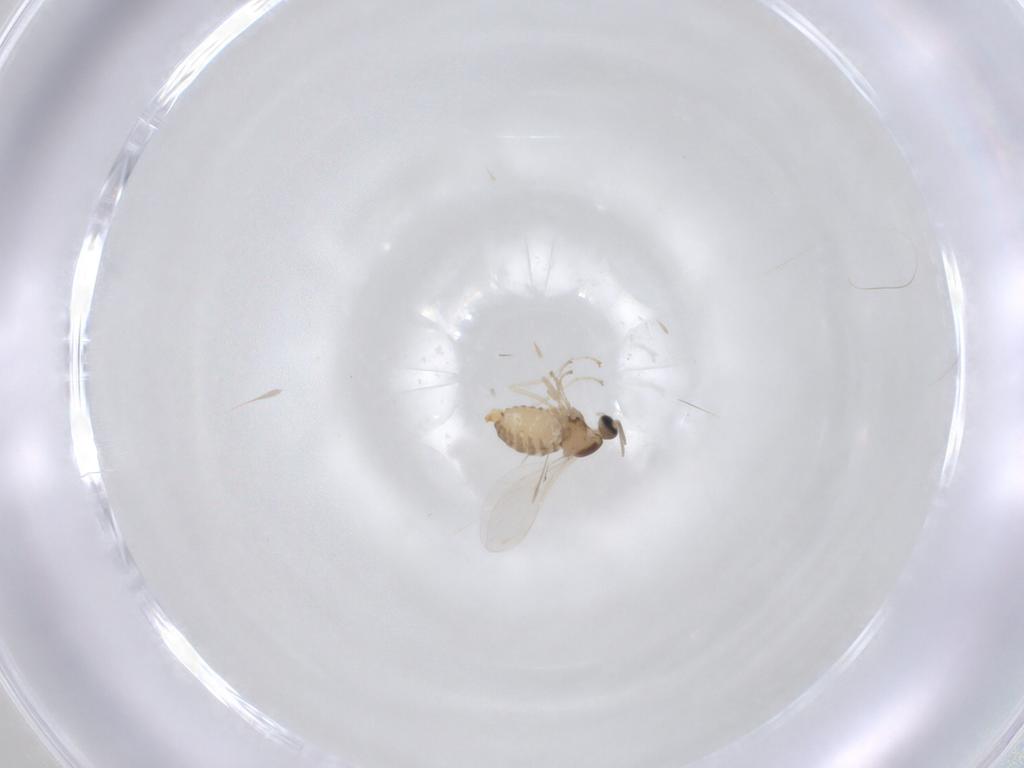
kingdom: Animalia
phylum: Arthropoda
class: Insecta
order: Diptera
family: Cecidomyiidae
